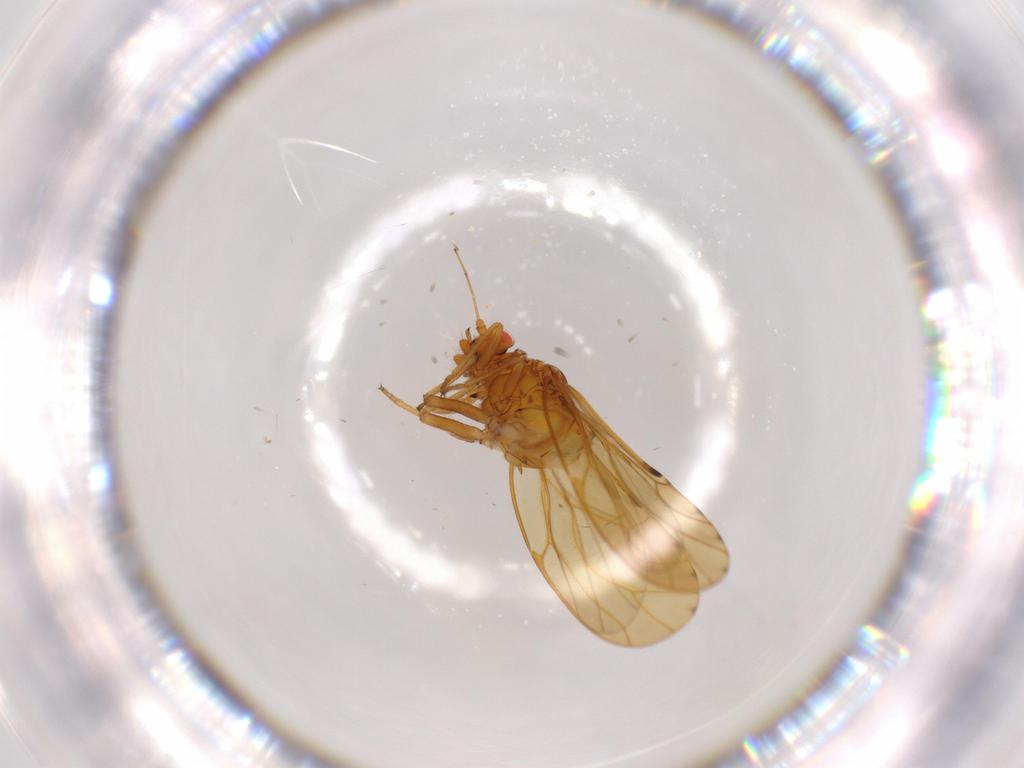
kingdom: Animalia
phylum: Arthropoda
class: Insecta
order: Hemiptera
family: Psylloidea_incertae_sedis
